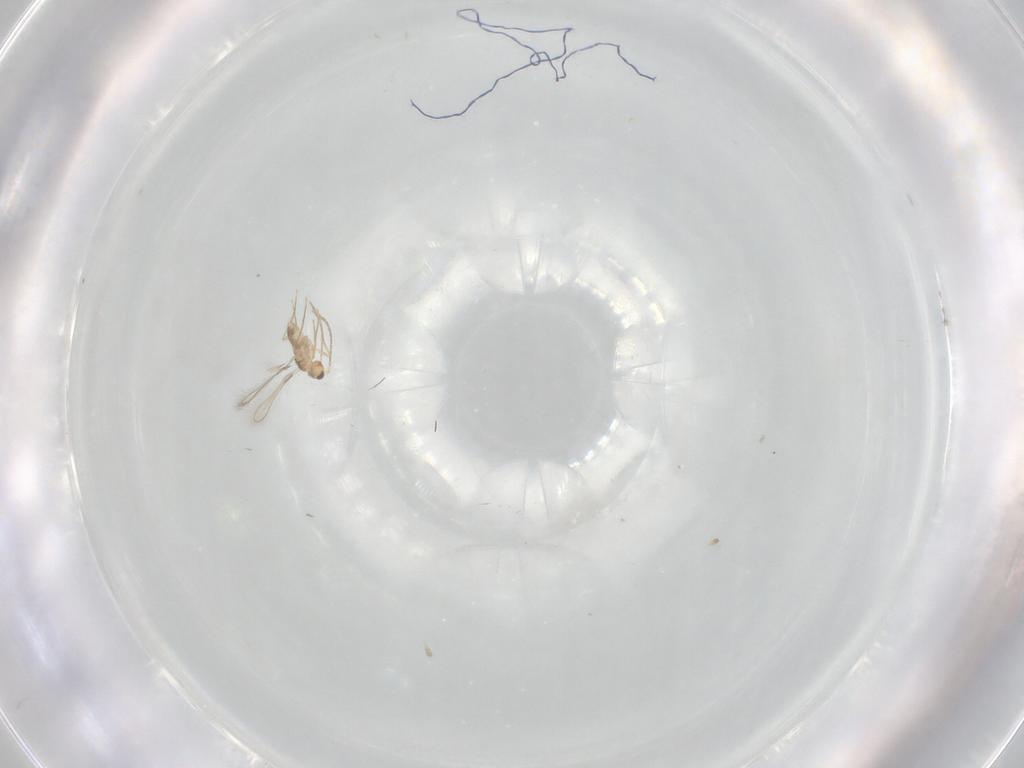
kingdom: Animalia
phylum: Arthropoda
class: Insecta
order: Hymenoptera
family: Mymaridae
